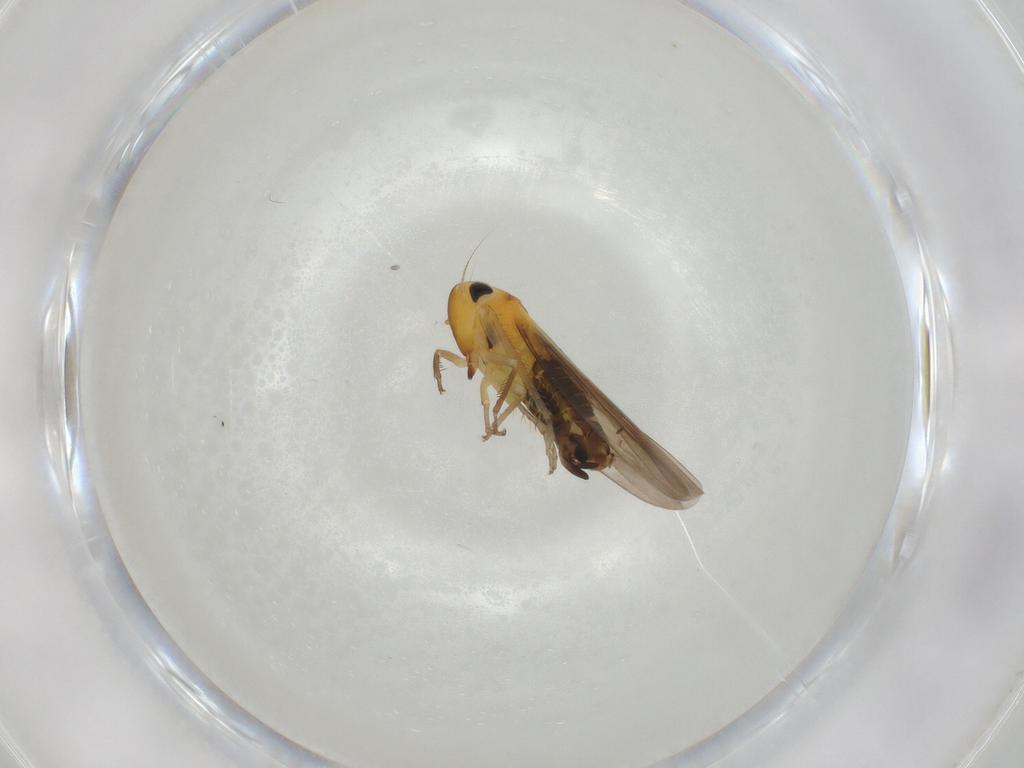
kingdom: Animalia
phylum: Arthropoda
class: Insecta
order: Hemiptera
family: Cicadellidae
